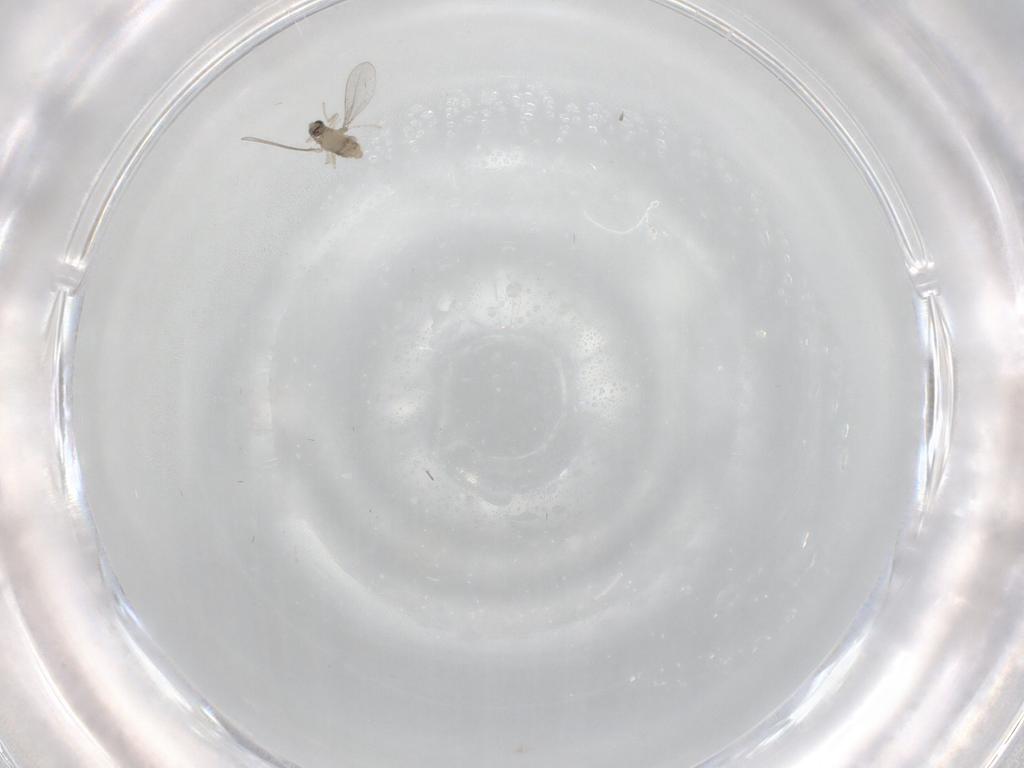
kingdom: Animalia
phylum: Arthropoda
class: Insecta
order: Diptera
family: Cecidomyiidae
